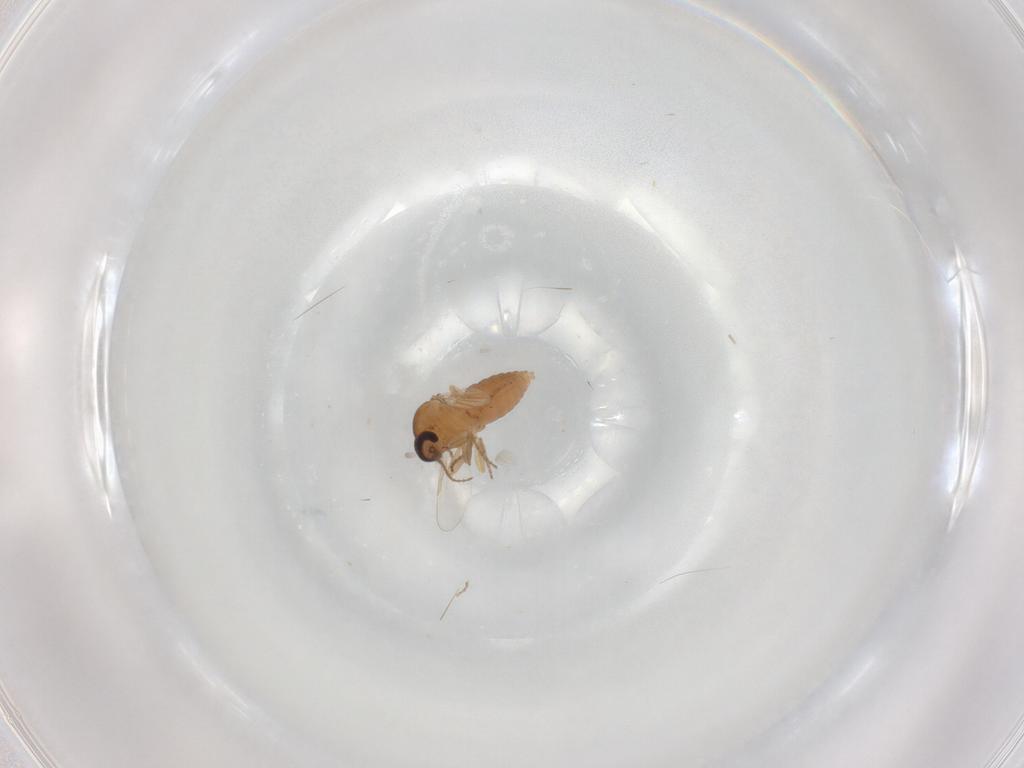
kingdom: Animalia
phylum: Arthropoda
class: Insecta
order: Diptera
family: Ceratopogonidae
